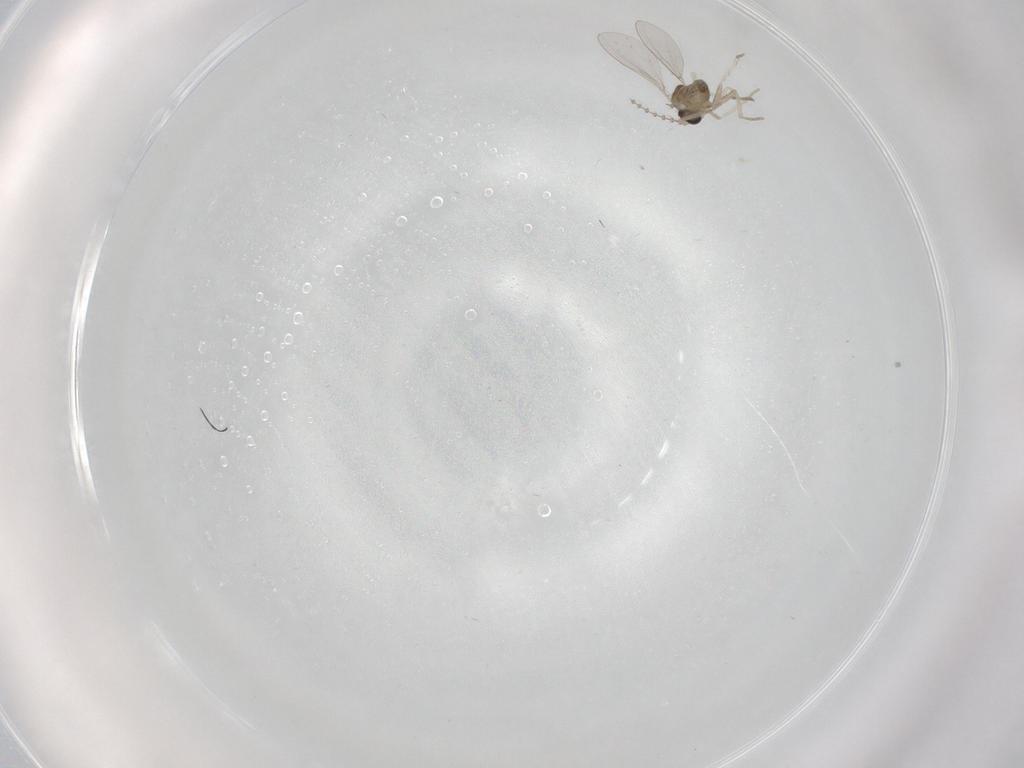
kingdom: Animalia
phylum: Arthropoda
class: Insecta
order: Diptera
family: Cecidomyiidae
